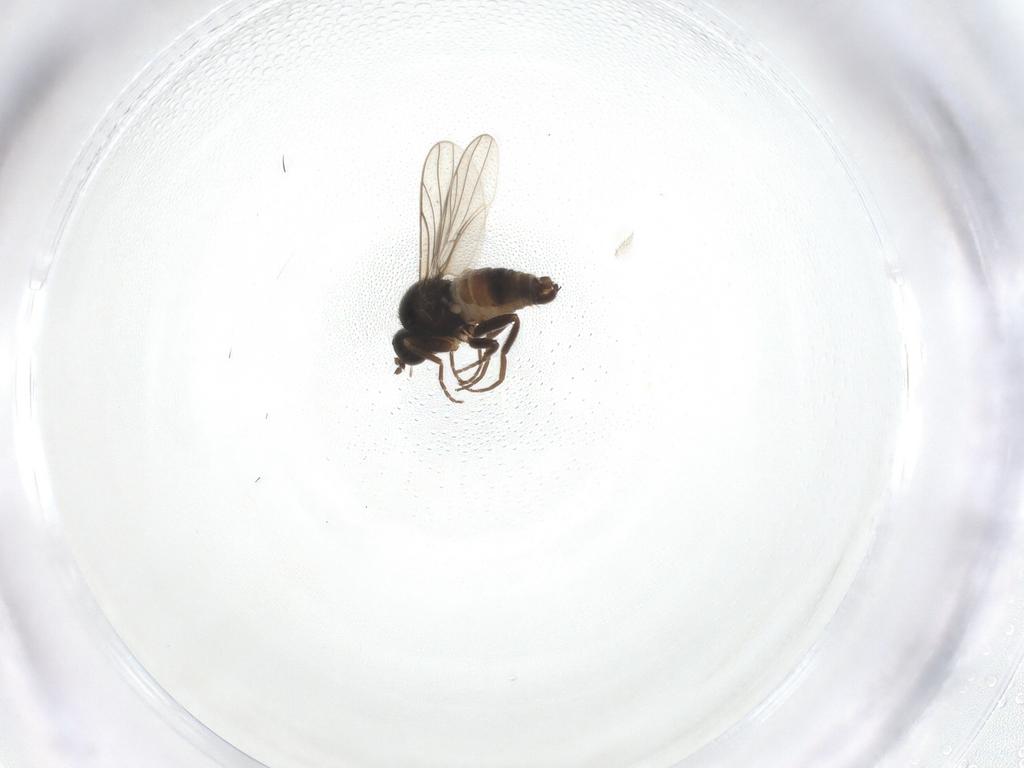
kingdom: Animalia
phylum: Arthropoda
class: Insecta
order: Diptera
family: Hybotidae
